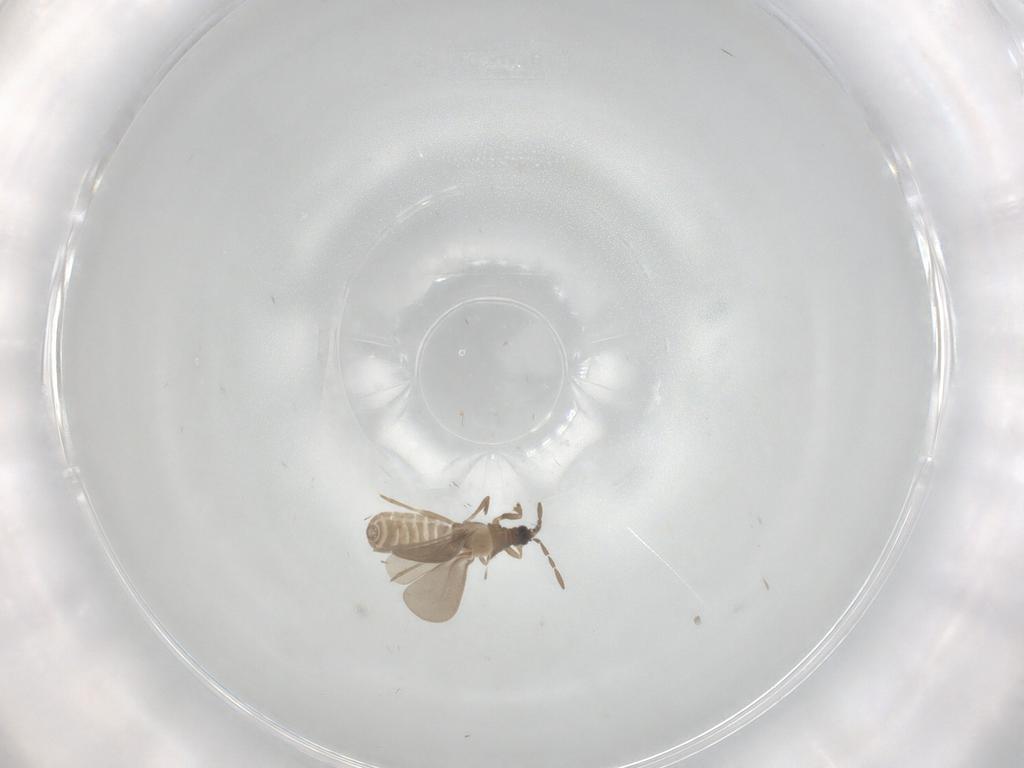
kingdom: Animalia
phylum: Arthropoda
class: Insecta
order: Hemiptera
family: Enicocephalidae
